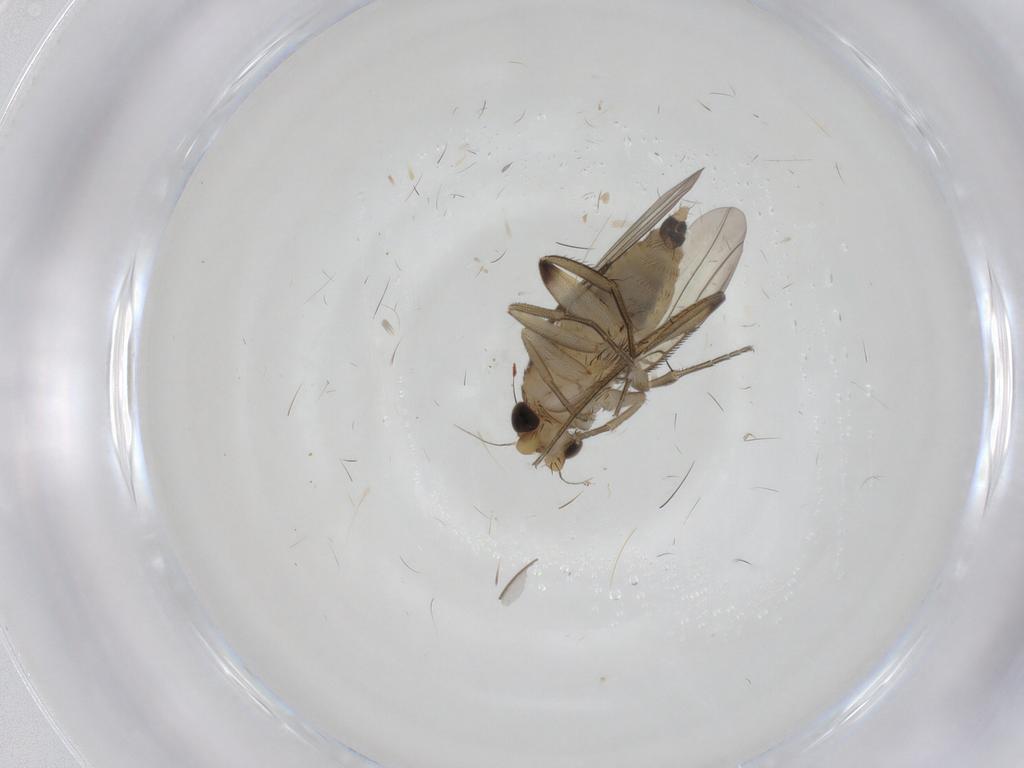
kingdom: Animalia
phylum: Arthropoda
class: Insecta
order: Diptera
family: Phoridae
